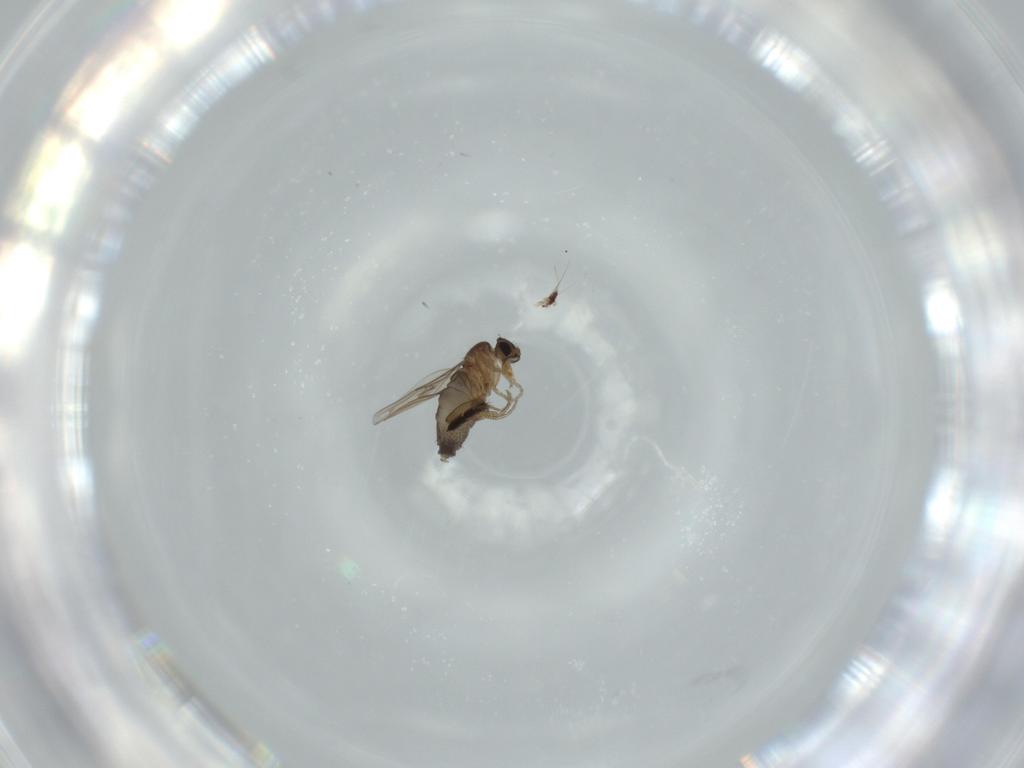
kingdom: Animalia
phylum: Arthropoda
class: Insecta
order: Diptera
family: Phoridae
